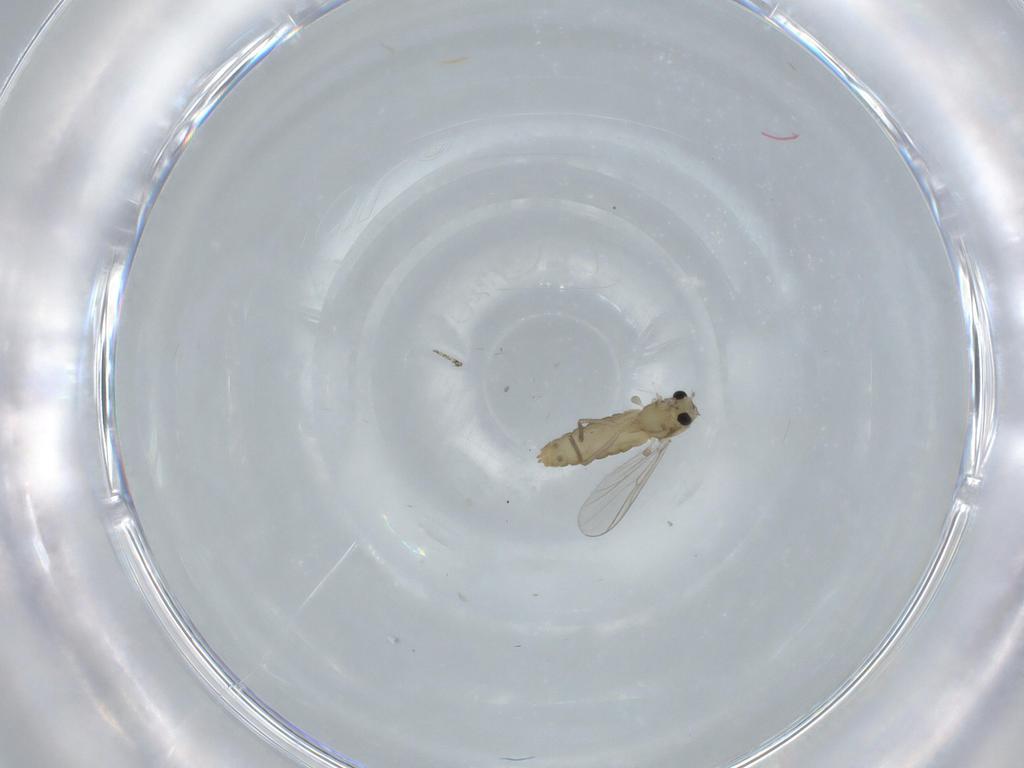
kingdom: Animalia
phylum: Arthropoda
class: Insecta
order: Diptera
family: Chironomidae
